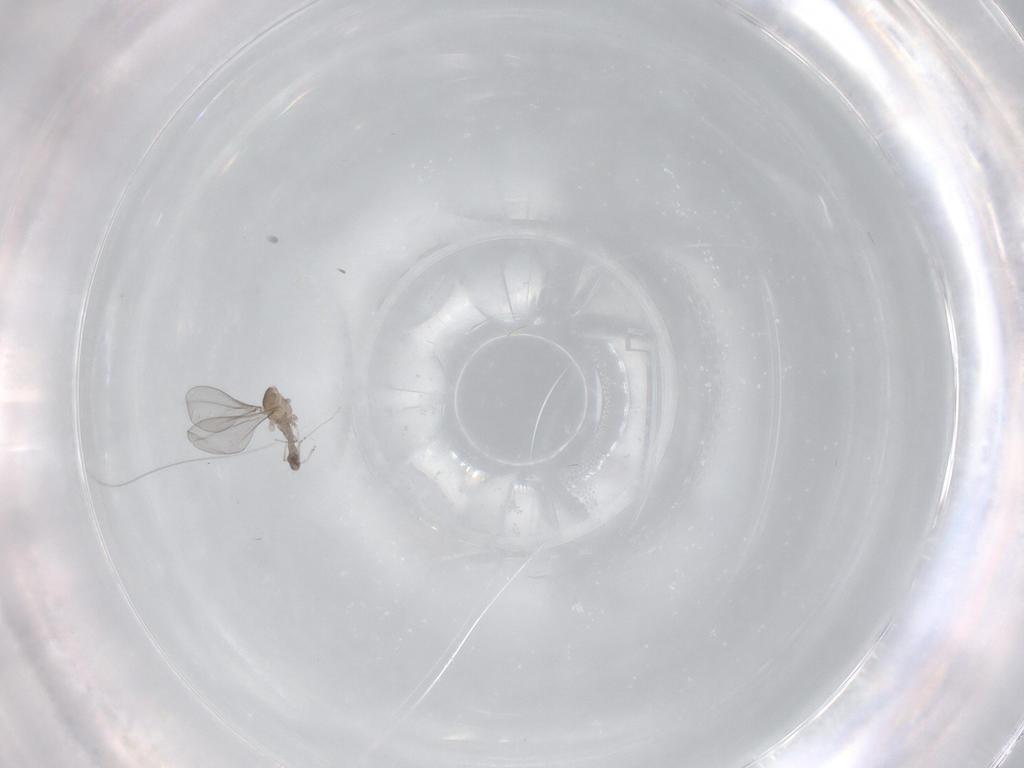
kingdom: Animalia
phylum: Arthropoda
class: Insecta
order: Diptera
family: Cecidomyiidae
